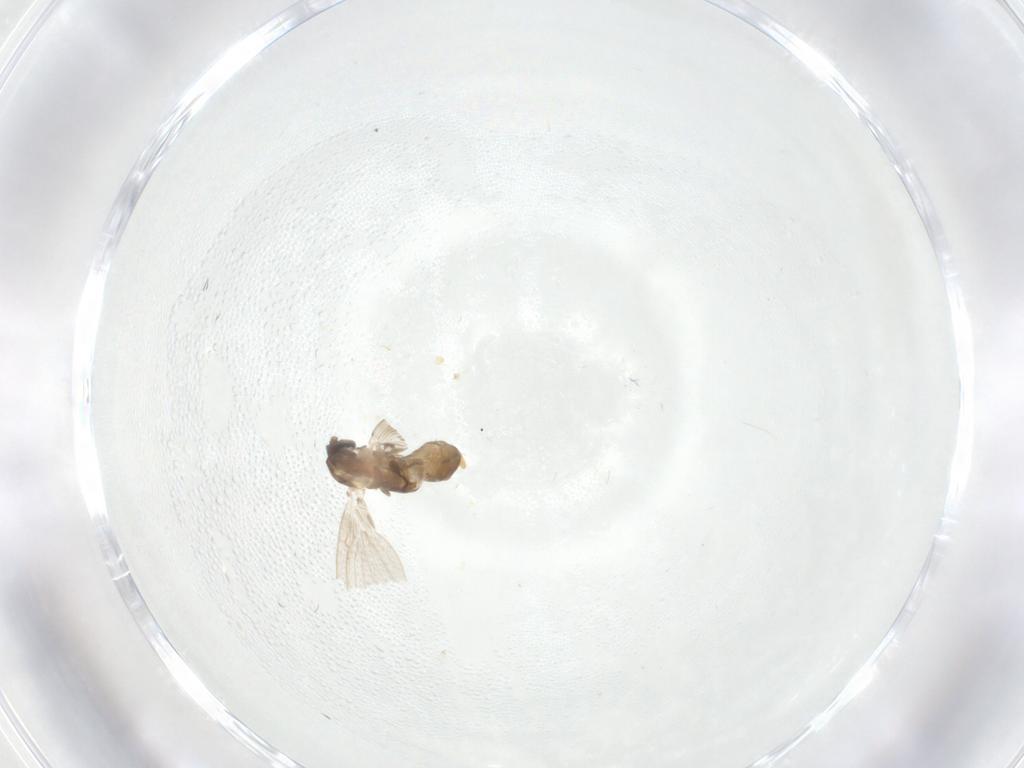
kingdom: Animalia
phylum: Arthropoda
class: Insecta
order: Diptera
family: Psychodidae
